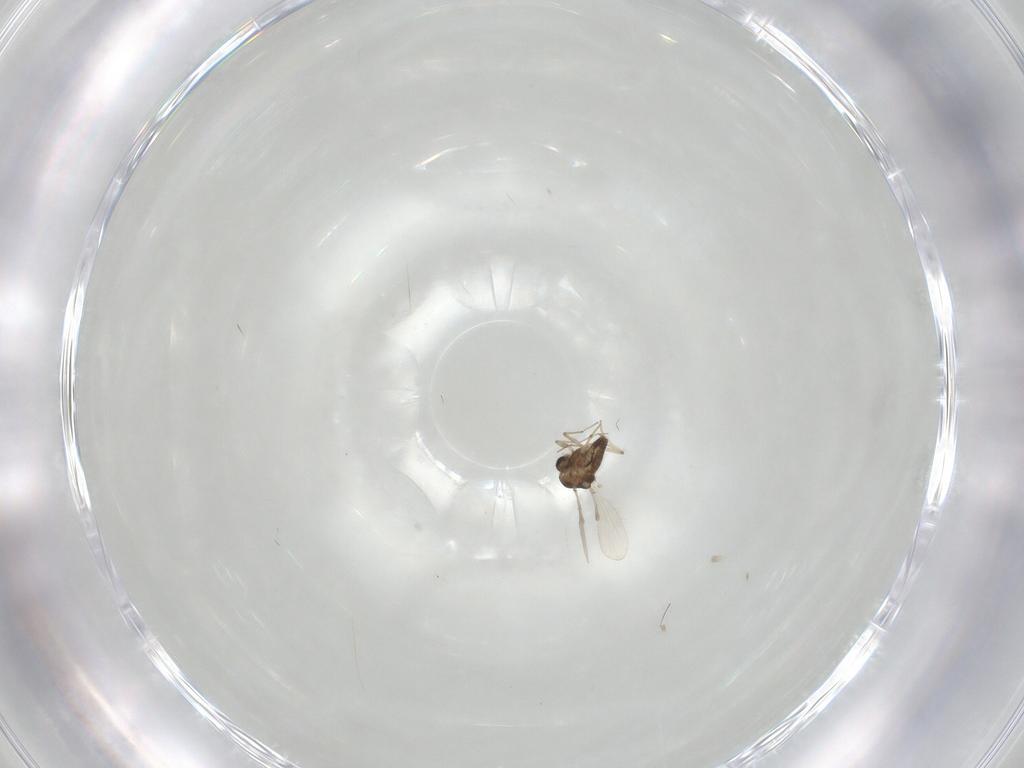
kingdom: Animalia
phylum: Arthropoda
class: Insecta
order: Diptera
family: Chironomidae
